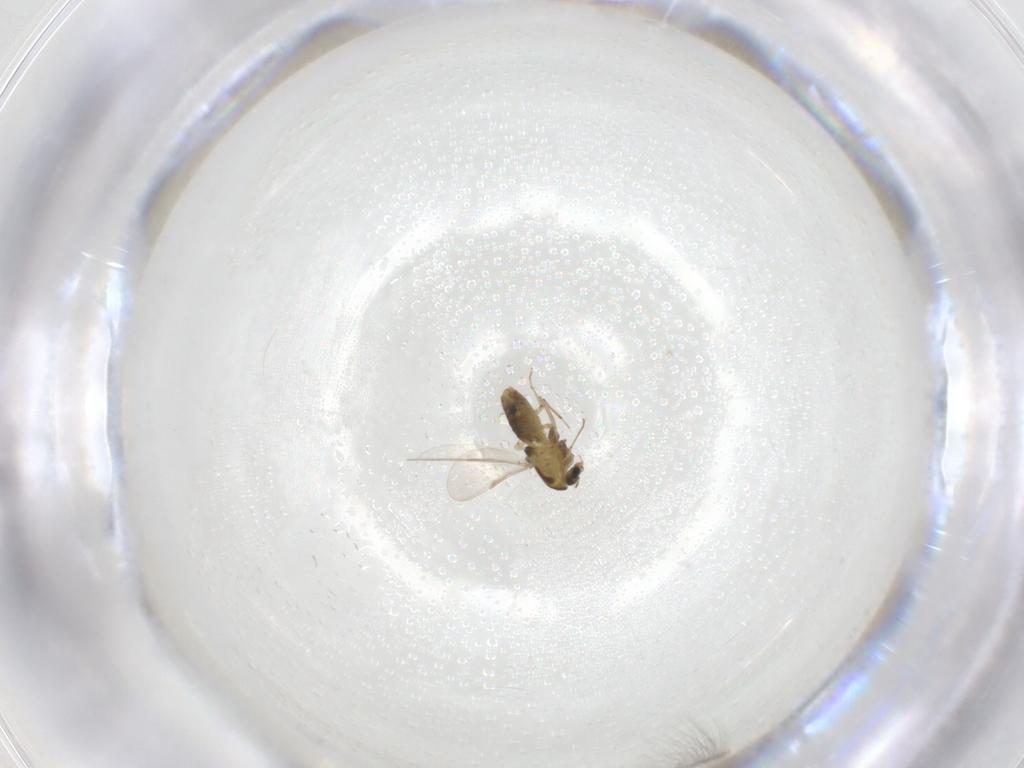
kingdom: Animalia
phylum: Arthropoda
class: Insecta
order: Diptera
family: Chironomidae
